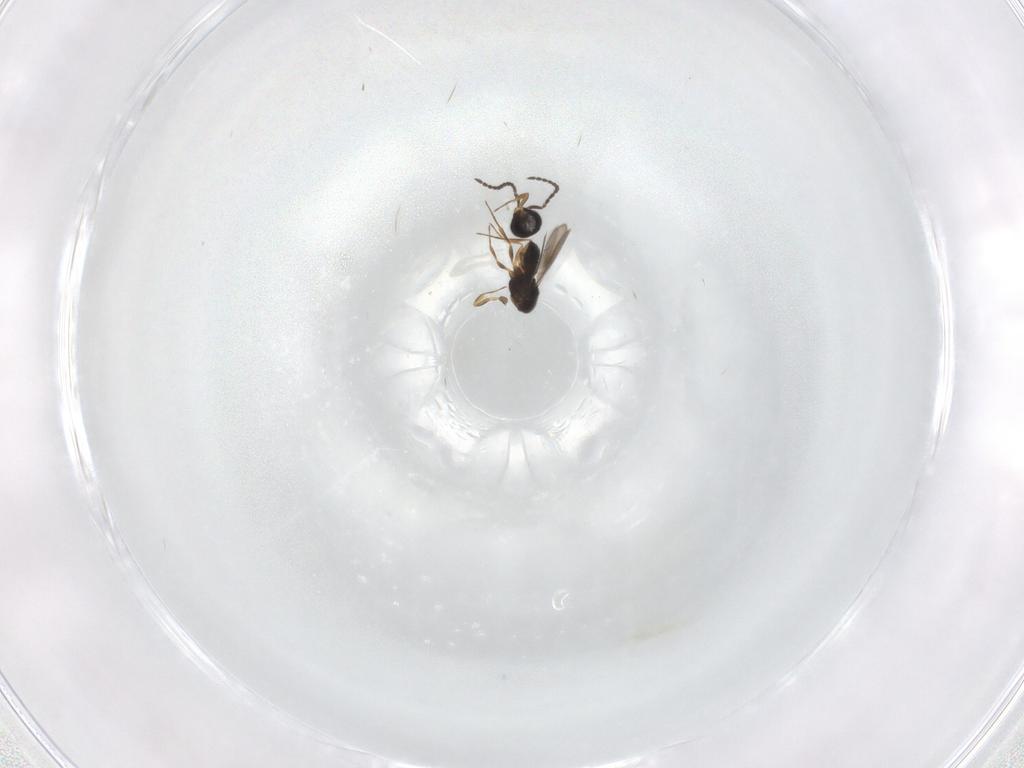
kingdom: Animalia
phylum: Arthropoda
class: Insecta
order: Hymenoptera
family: Scelionidae
